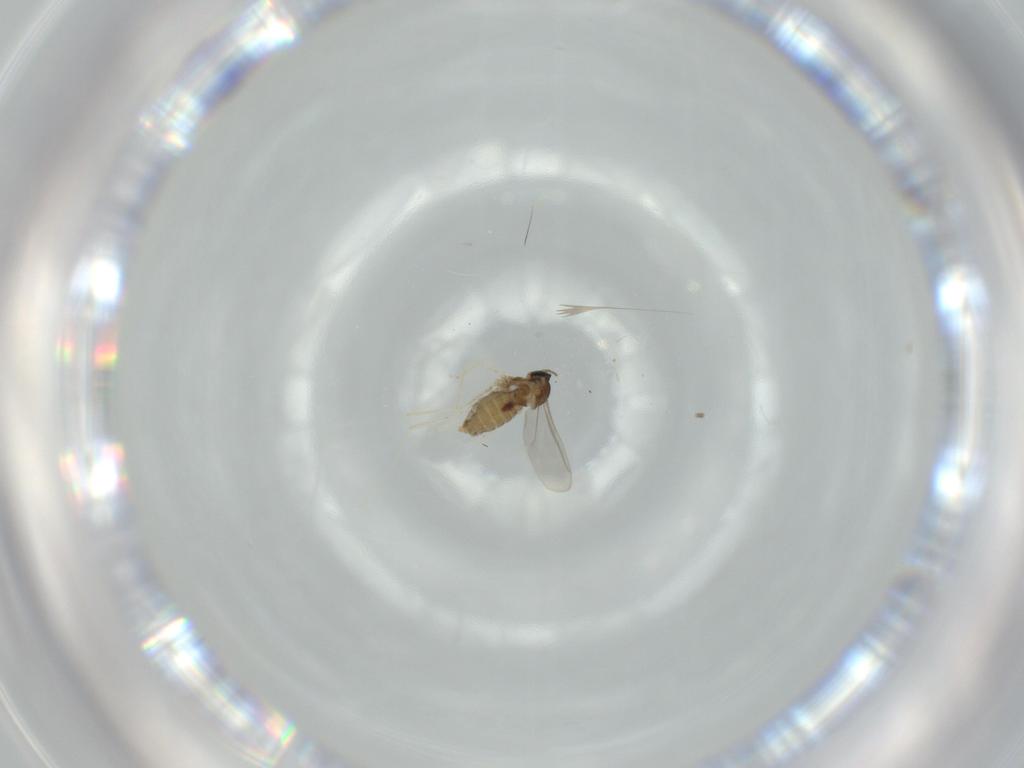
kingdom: Animalia
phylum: Arthropoda
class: Insecta
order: Diptera
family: Cecidomyiidae
